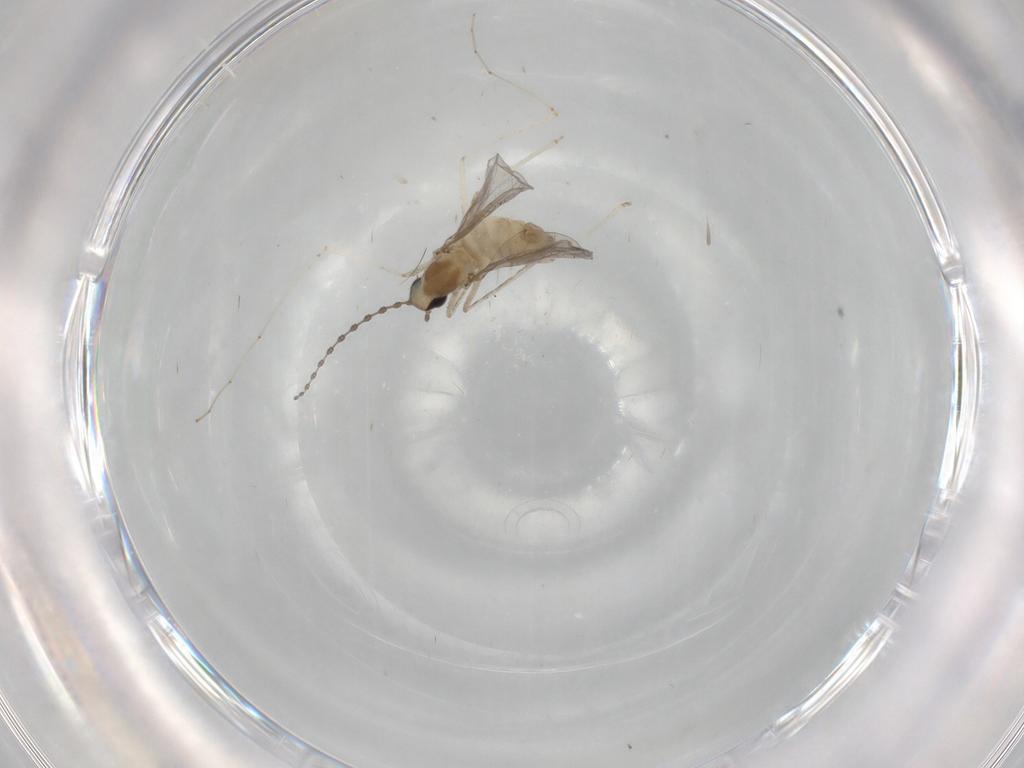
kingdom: Animalia
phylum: Arthropoda
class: Insecta
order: Diptera
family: Cecidomyiidae
